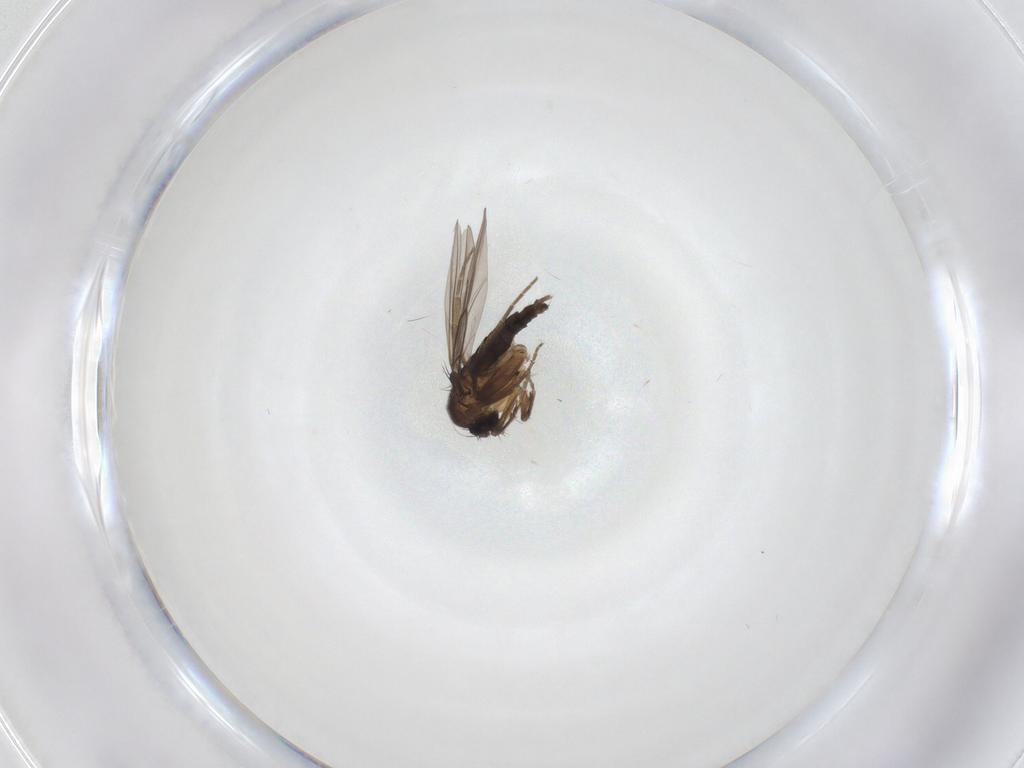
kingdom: Animalia
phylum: Arthropoda
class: Insecta
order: Diptera
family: Phoridae
